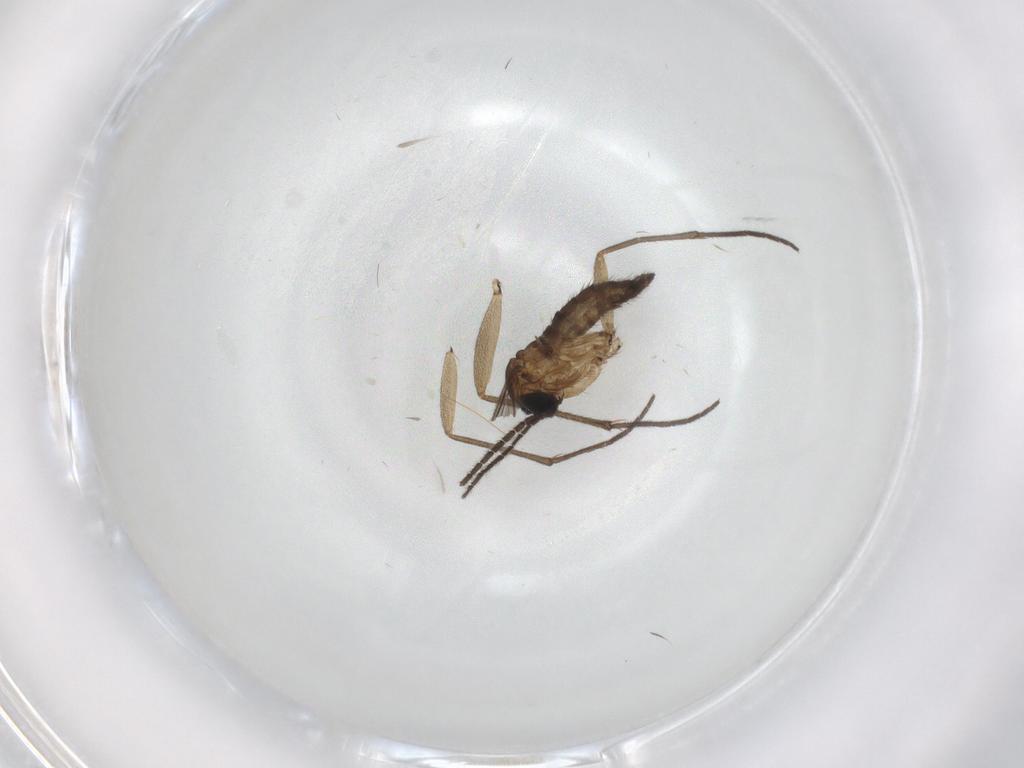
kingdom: Animalia
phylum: Arthropoda
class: Insecta
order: Diptera
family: Sciaridae
